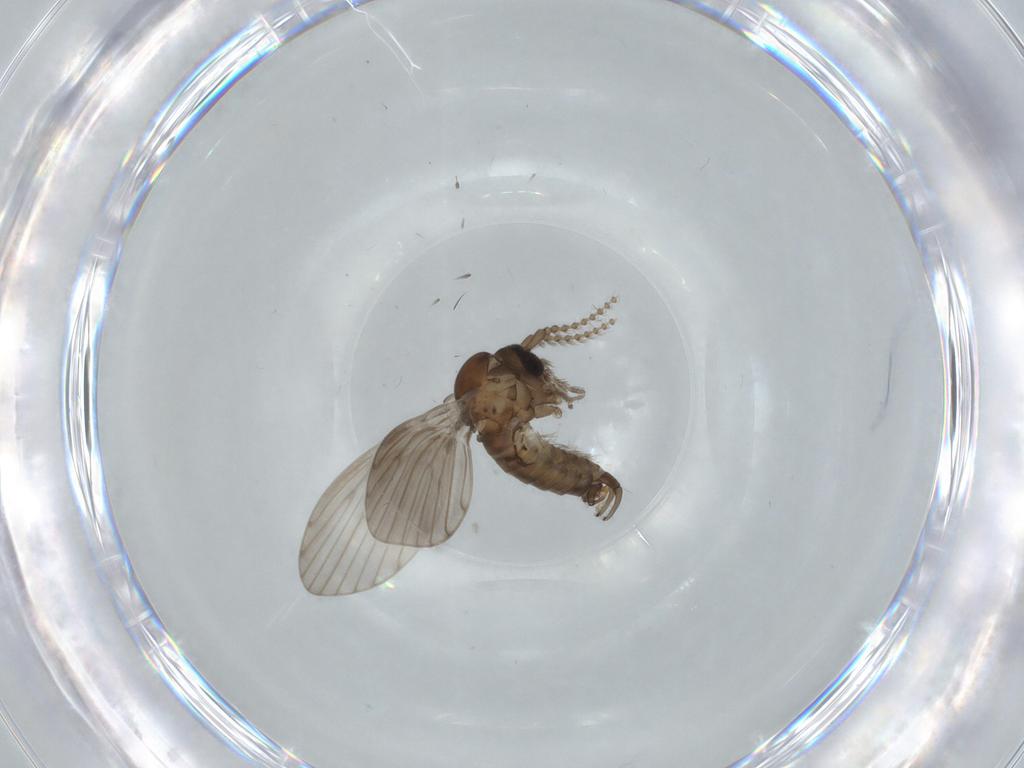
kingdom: Animalia
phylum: Arthropoda
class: Insecta
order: Diptera
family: Psychodidae
